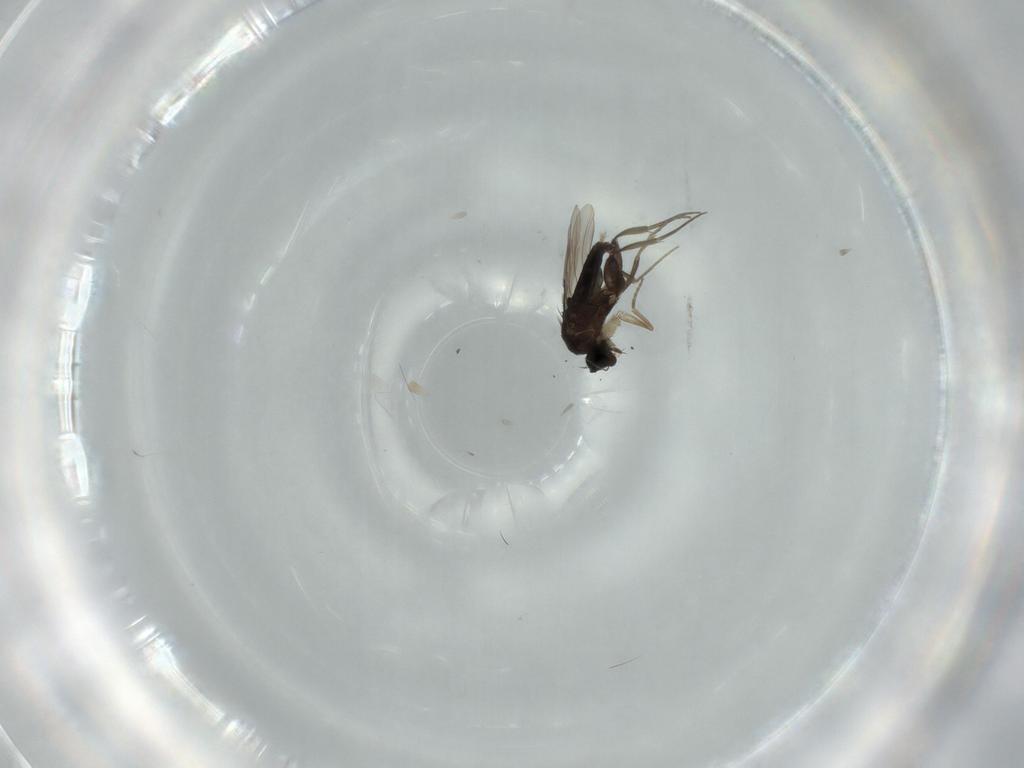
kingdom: Animalia
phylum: Arthropoda
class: Insecta
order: Diptera
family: Phoridae
